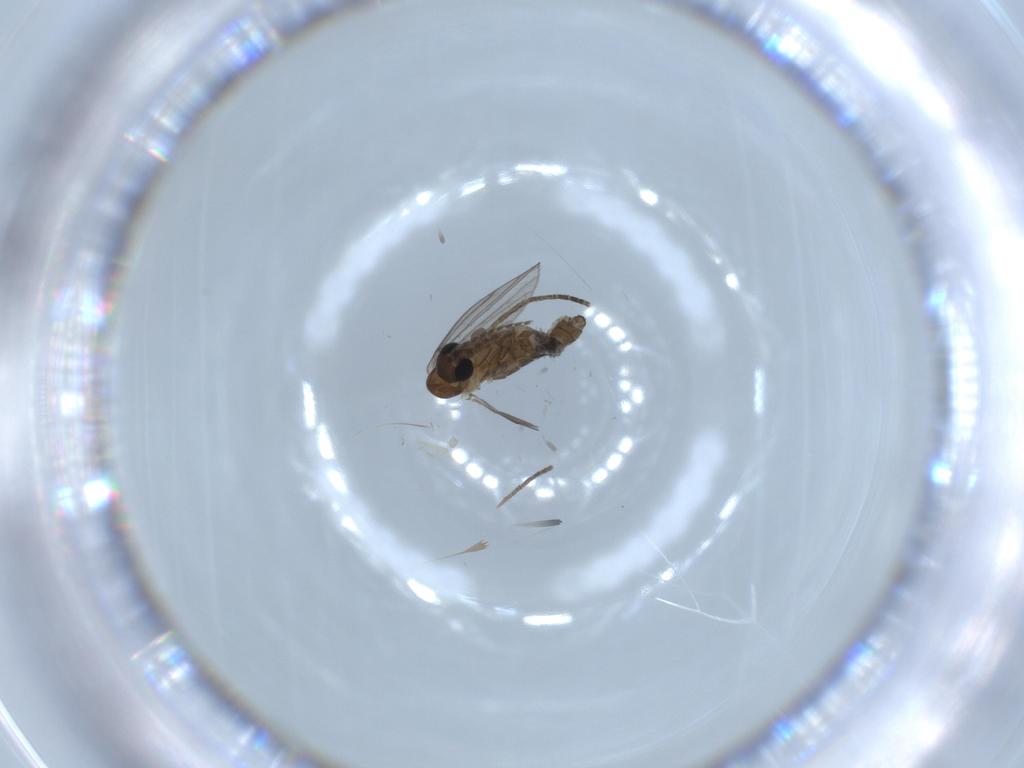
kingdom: Animalia
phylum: Arthropoda
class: Insecta
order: Diptera
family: Psychodidae
